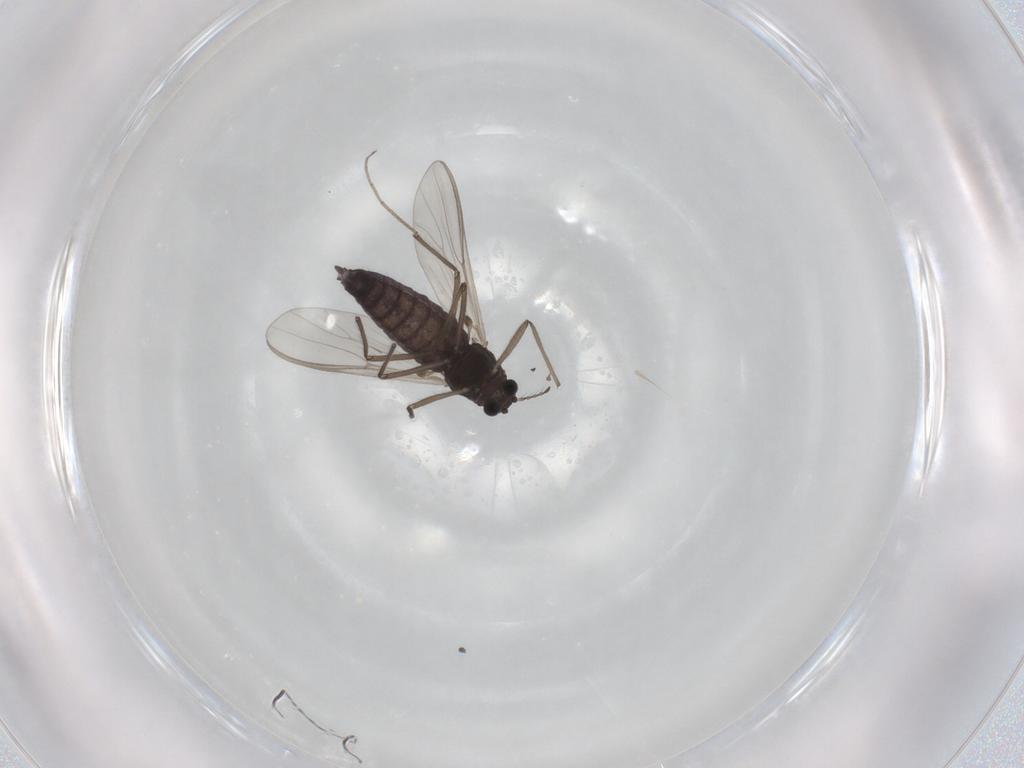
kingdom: Animalia
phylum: Arthropoda
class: Insecta
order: Diptera
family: Chironomidae
